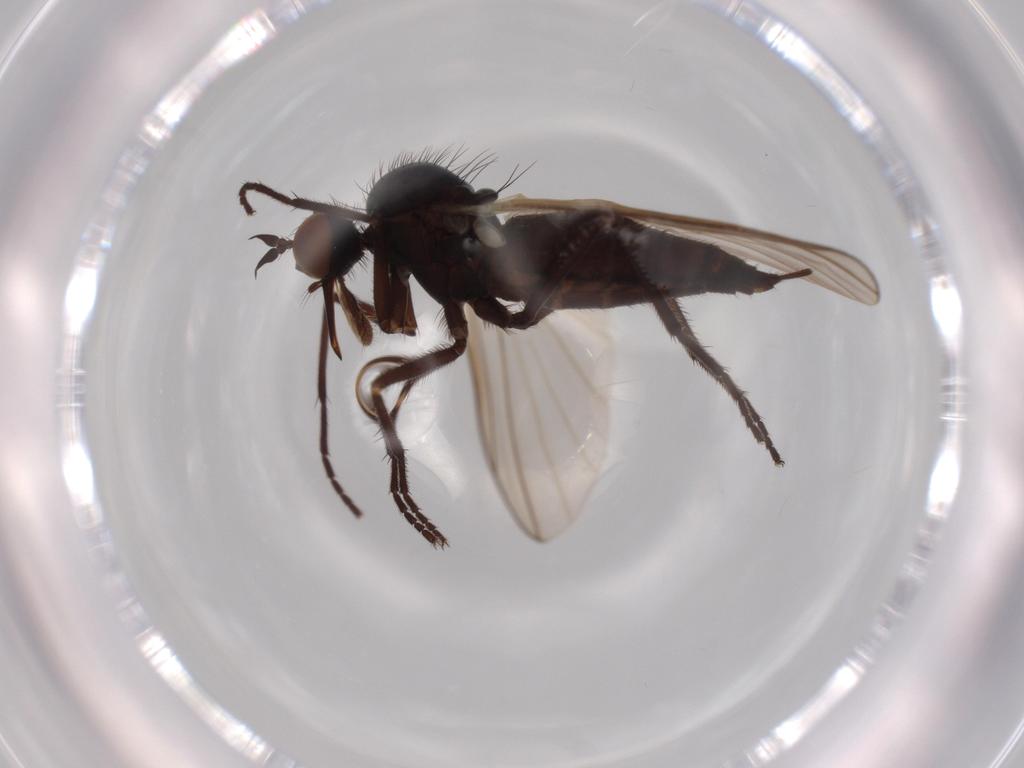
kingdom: Animalia
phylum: Arthropoda
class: Insecta
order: Diptera
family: Empididae
